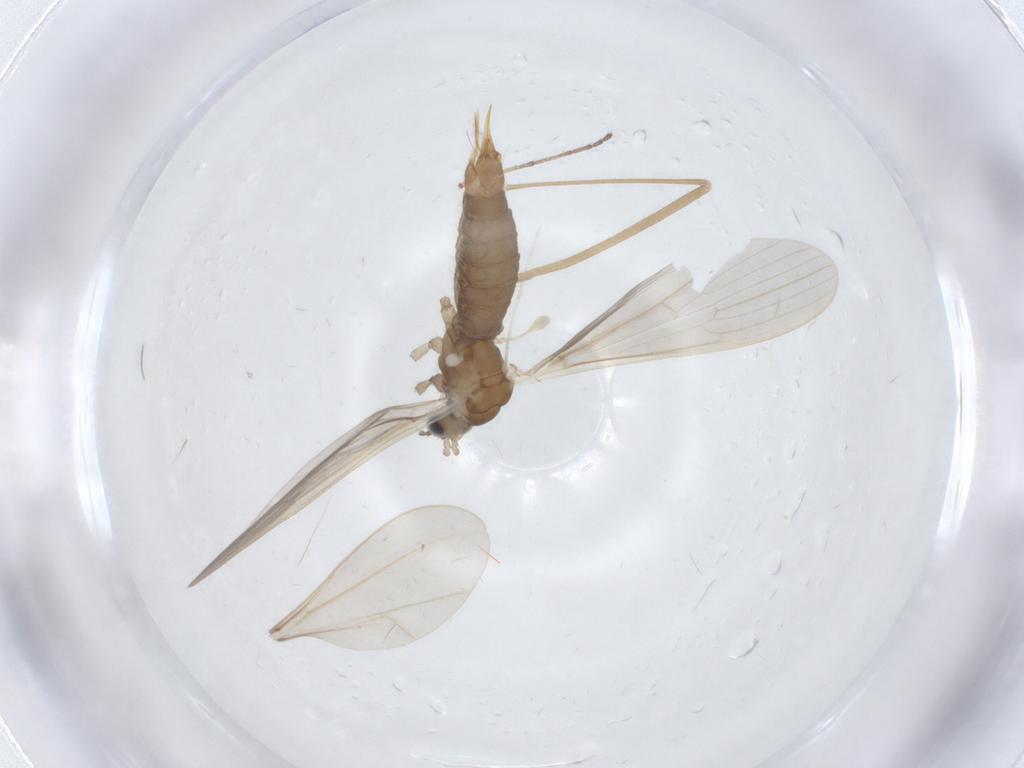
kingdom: Animalia
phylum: Arthropoda
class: Insecta
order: Diptera
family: Limoniidae
